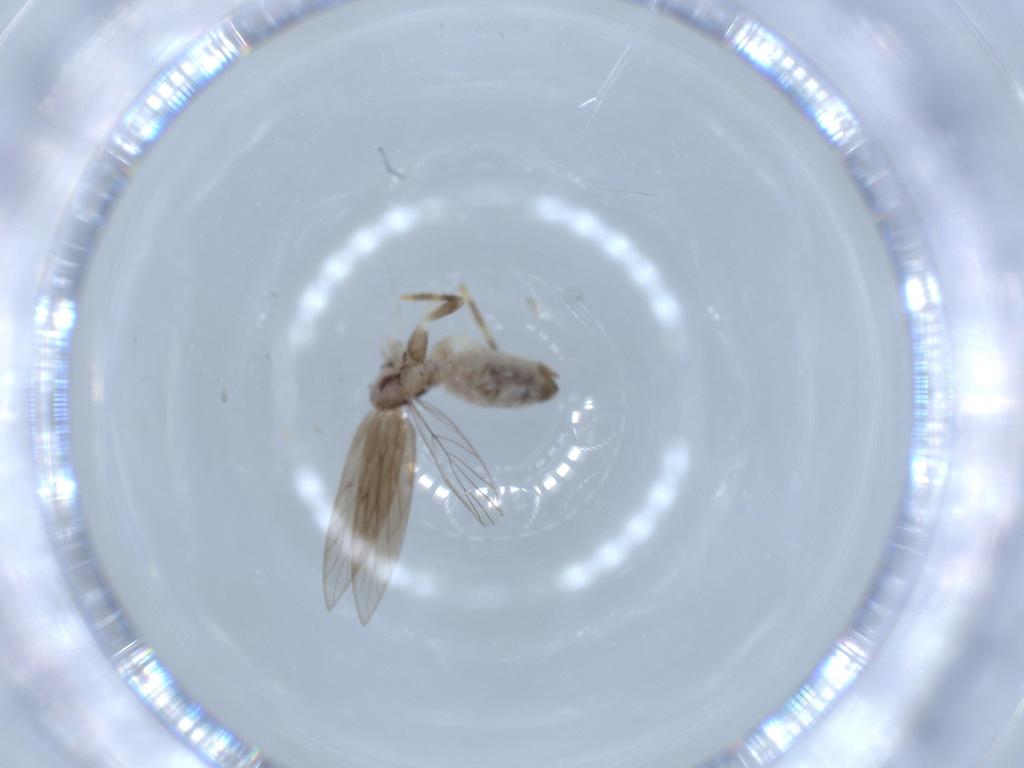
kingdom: Animalia
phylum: Arthropoda
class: Insecta
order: Psocodea
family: Lepidopsocidae
